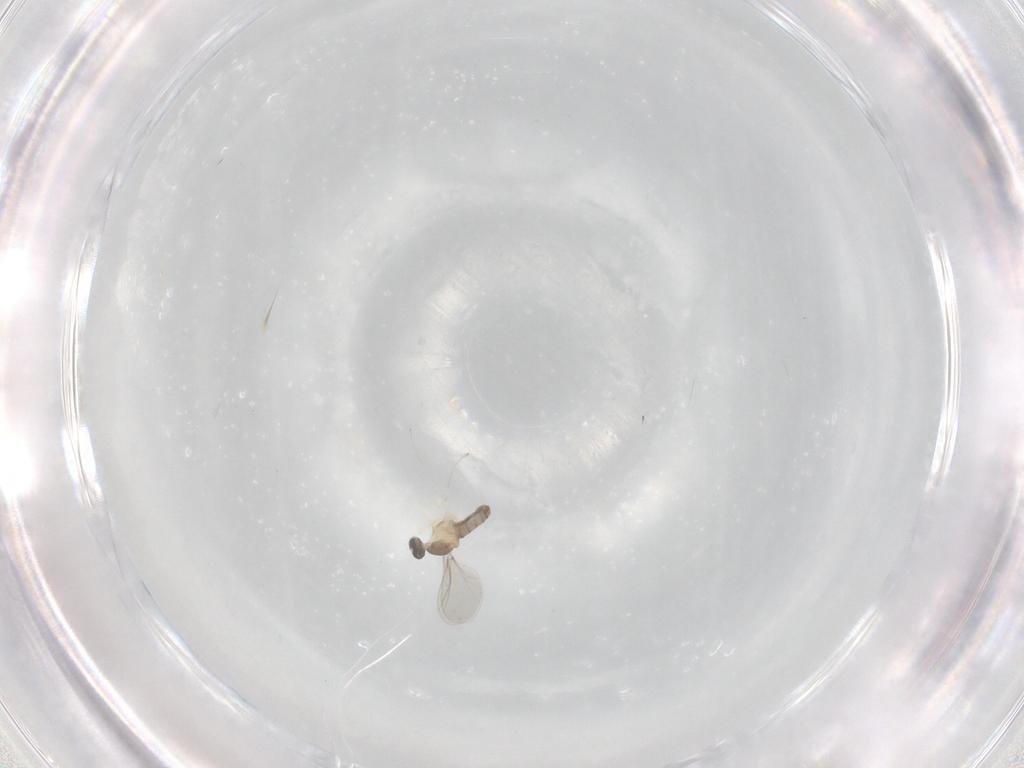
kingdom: Animalia
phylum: Arthropoda
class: Insecta
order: Diptera
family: Cecidomyiidae
